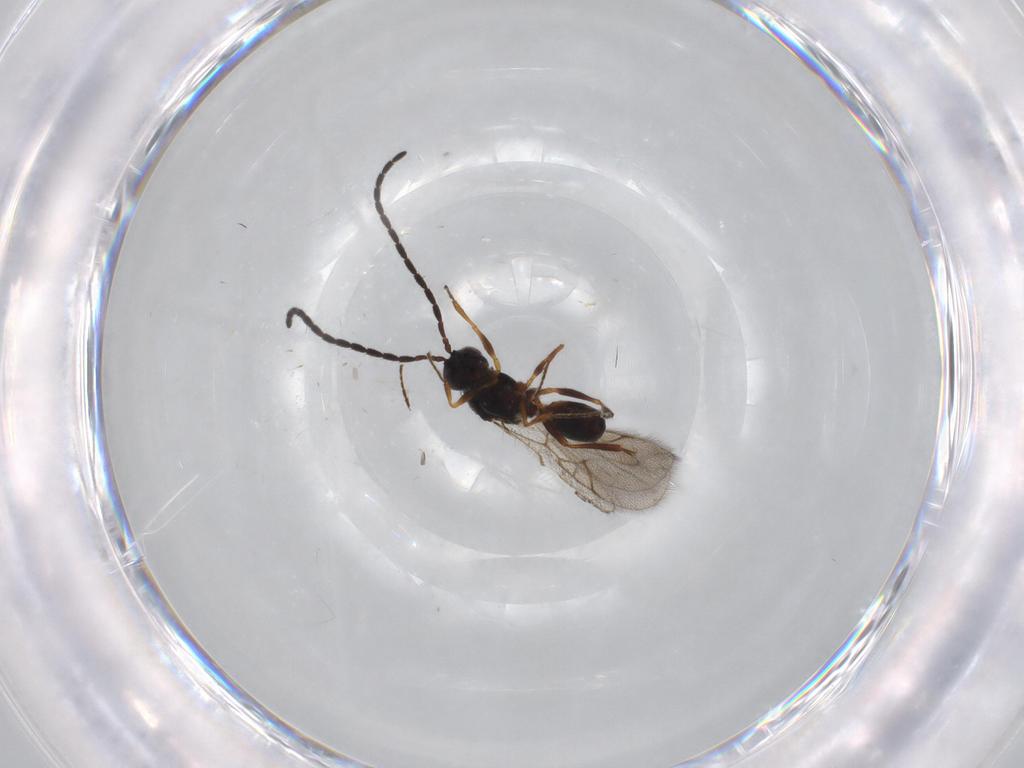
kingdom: Animalia
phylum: Arthropoda
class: Insecta
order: Hymenoptera
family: Figitidae
